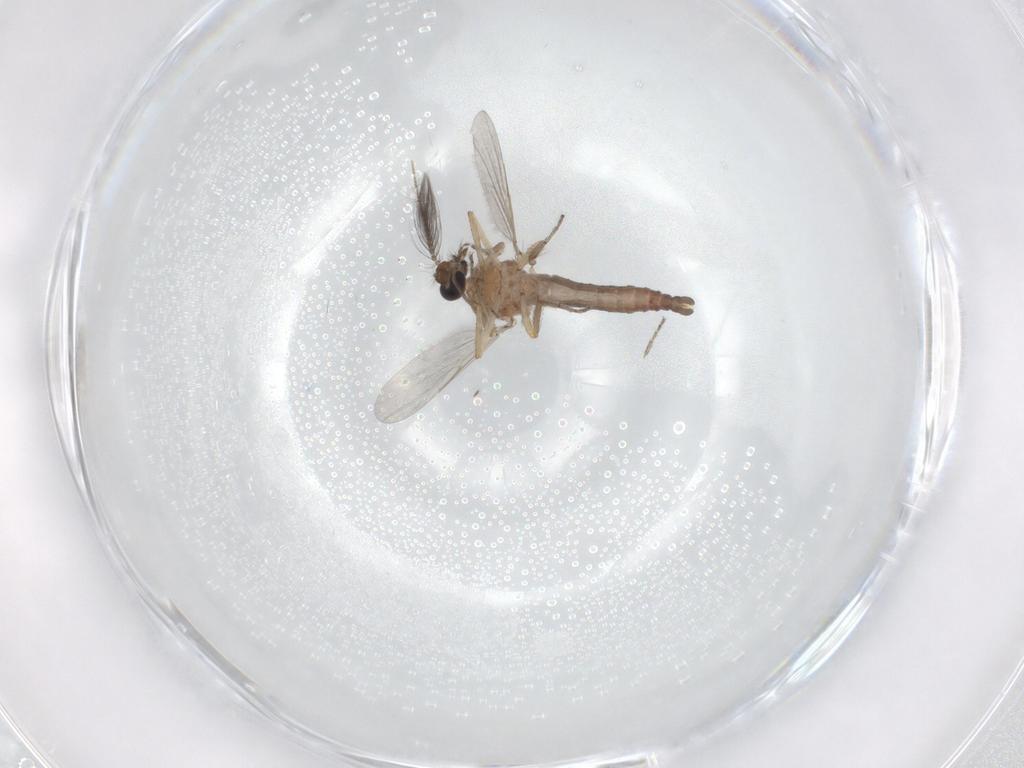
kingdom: Animalia
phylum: Arthropoda
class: Insecta
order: Diptera
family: Ceratopogonidae
